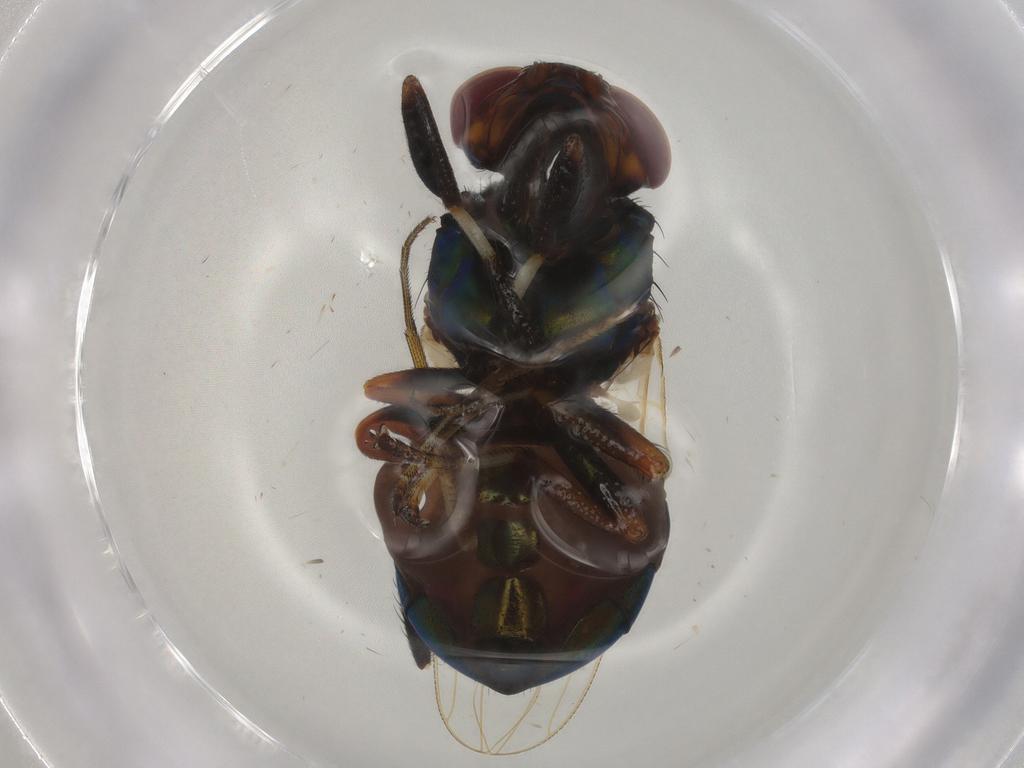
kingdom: Animalia
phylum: Arthropoda
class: Insecta
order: Diptera
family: Ulidiidae
